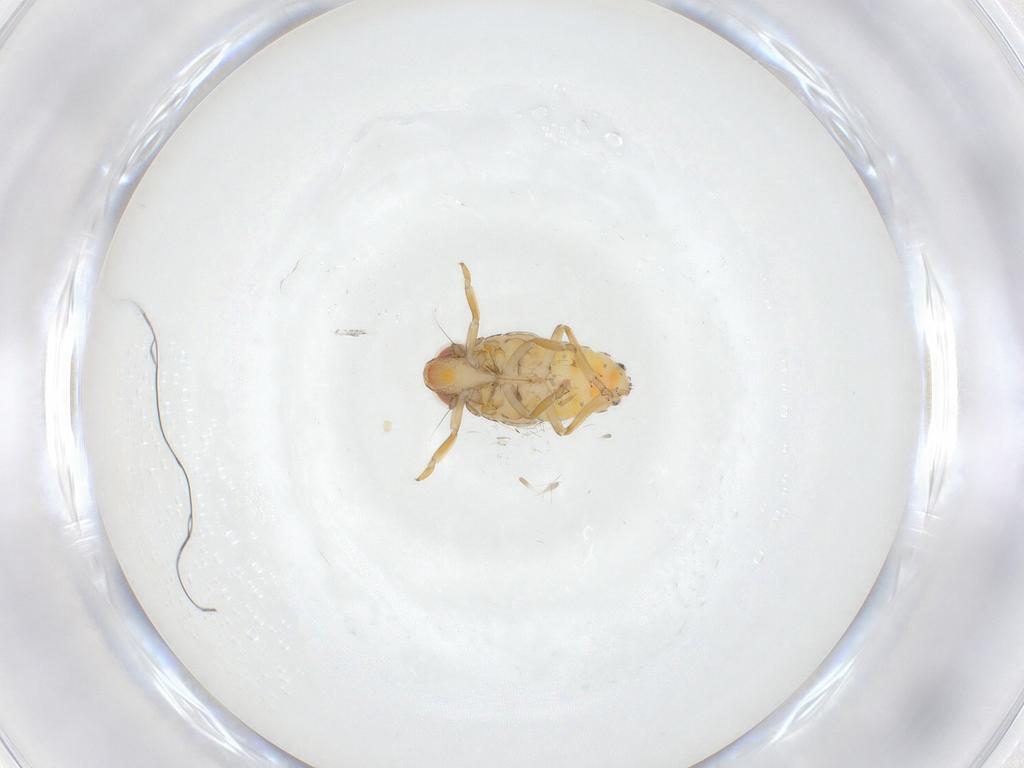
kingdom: Animalia
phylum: Arthropoda
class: Insecta
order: Hemiptera
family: Fulgoroidea_incertae_sedis
